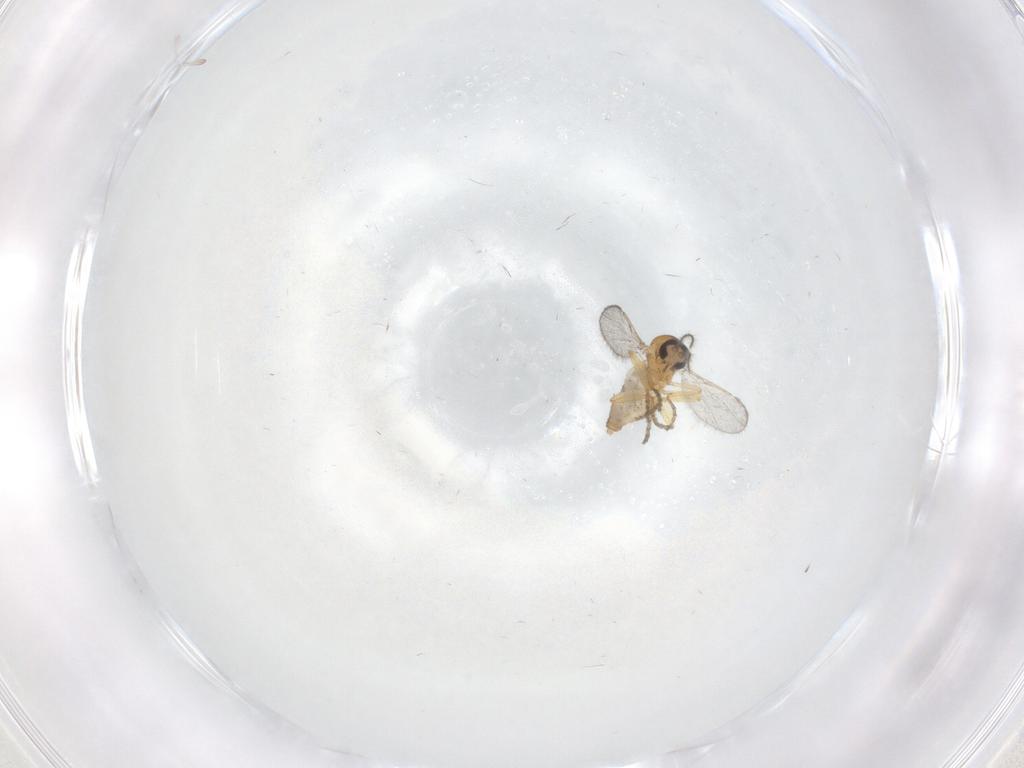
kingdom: Animalia
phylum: Arthropoda
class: Insecta
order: Diptera
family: Ceratopogonidae
